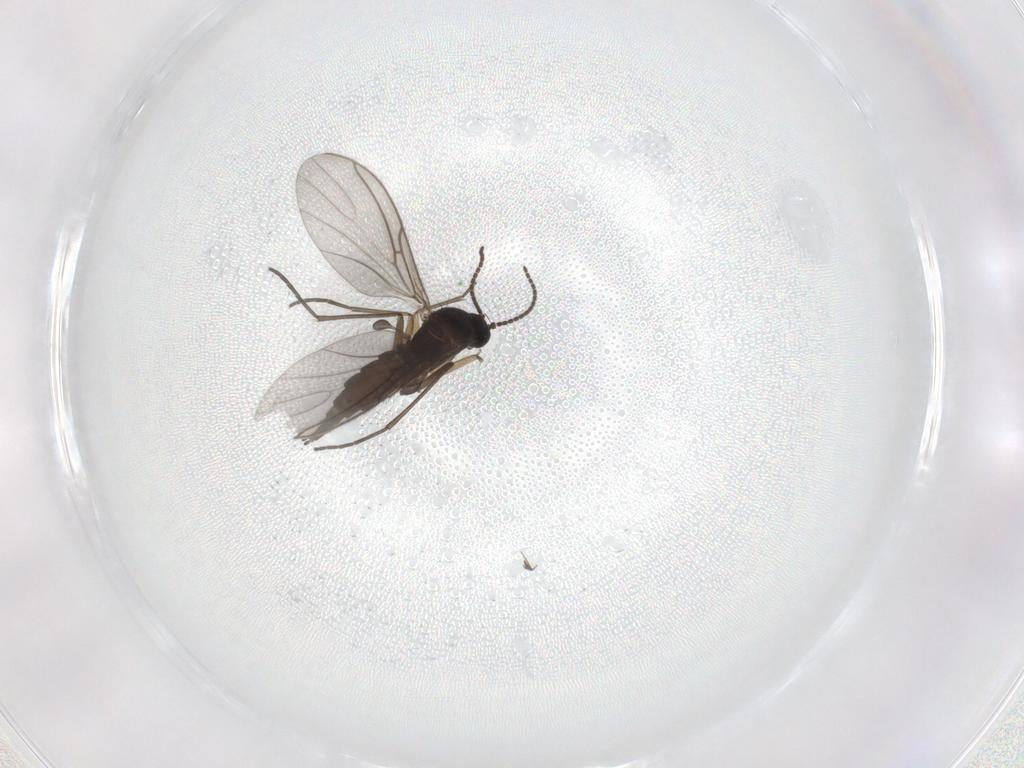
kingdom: Animalia
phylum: Arthropoda
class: Insecta
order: Diptera
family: Sciaridae
